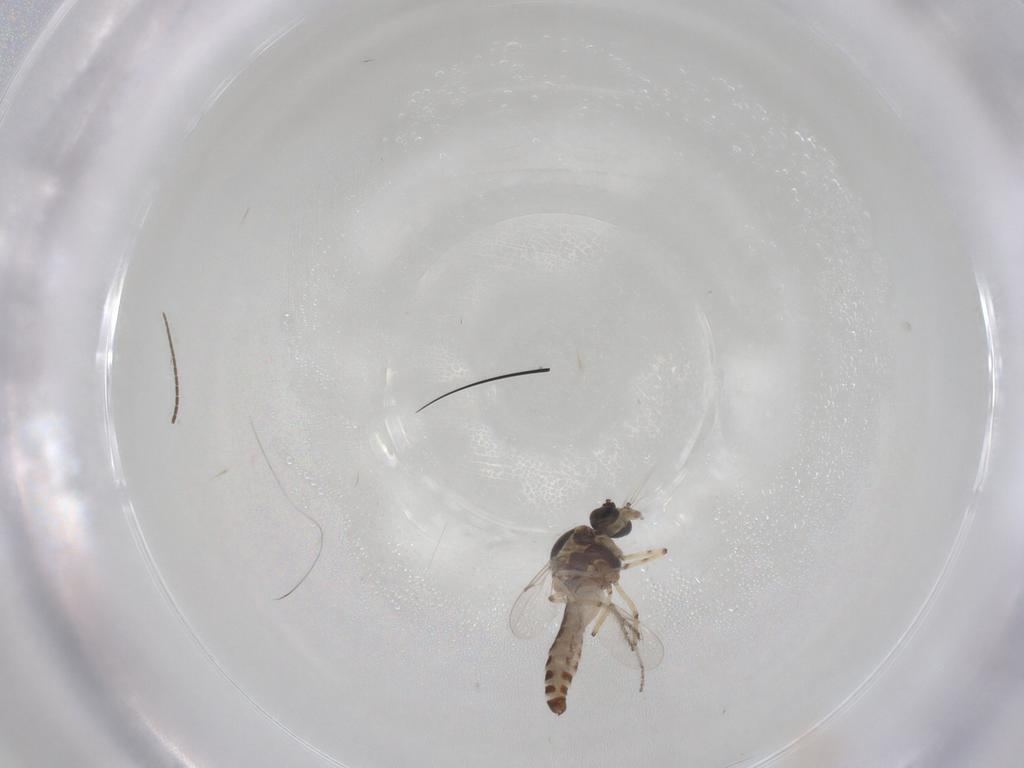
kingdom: Animalia
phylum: Arthropoda
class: Insecta
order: Diptera
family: Ceratopogonidae
